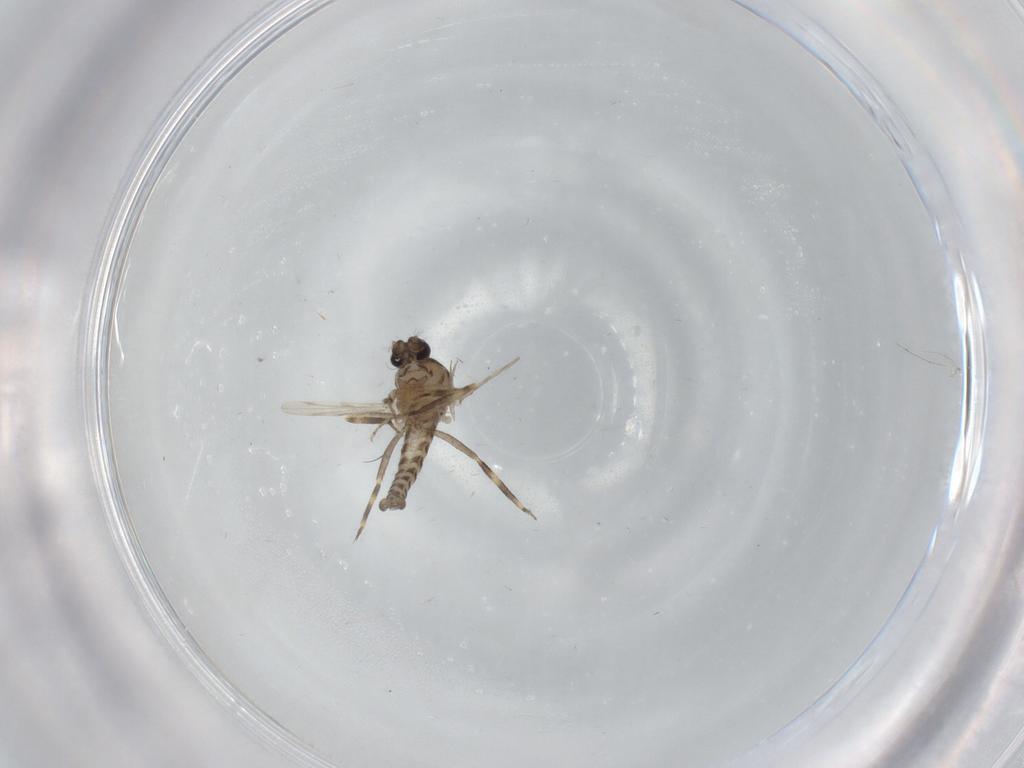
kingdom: Animalia
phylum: Arthropoda
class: Insecta
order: Diptera
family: Ceratopogonidae
